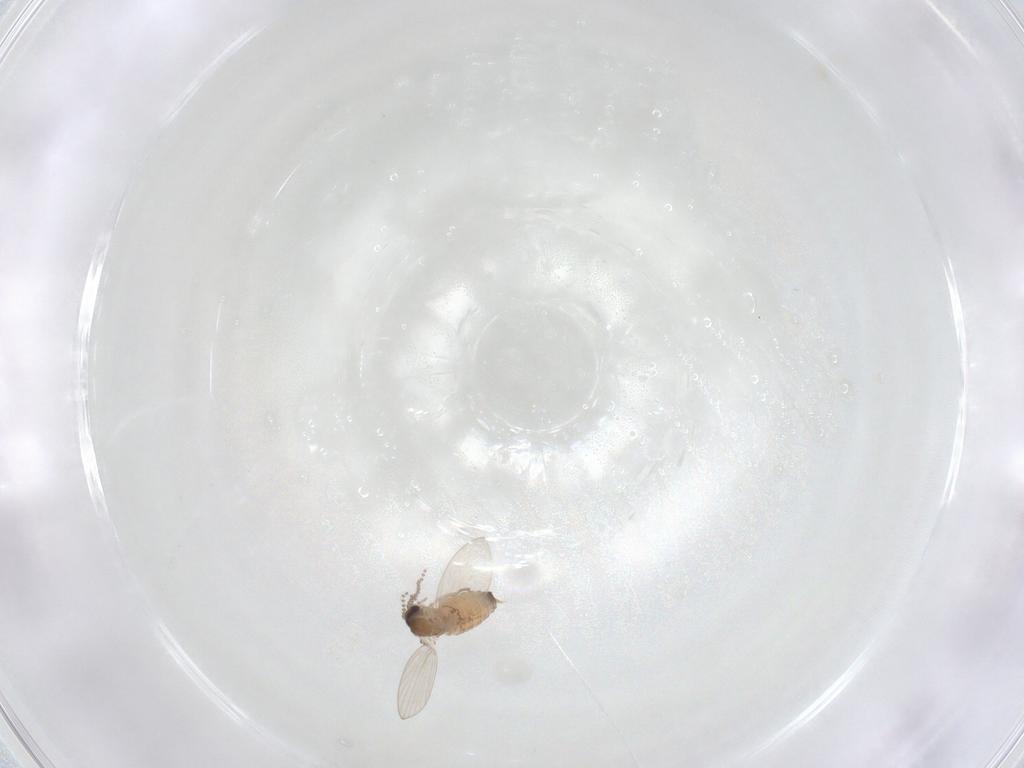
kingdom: Animalia
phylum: Arthropoda
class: Insecta
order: Diptera
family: Psychodidae
